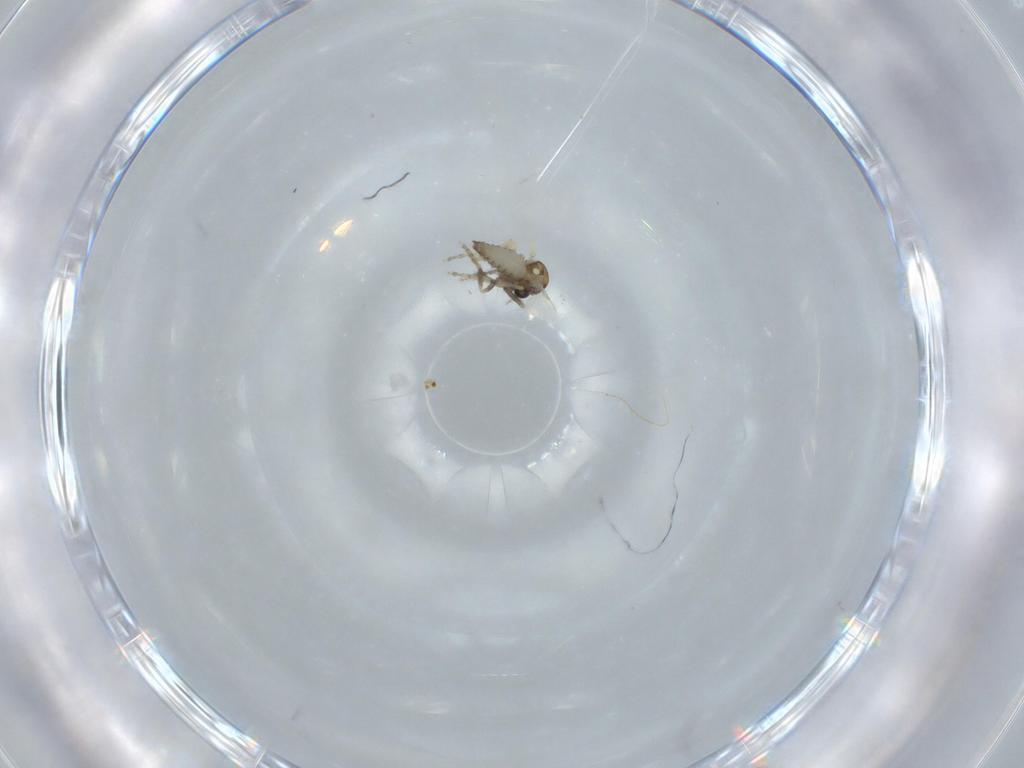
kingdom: Animalia
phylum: Arthropoda
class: Insecta
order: Diptera
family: Ceratopogonidae
